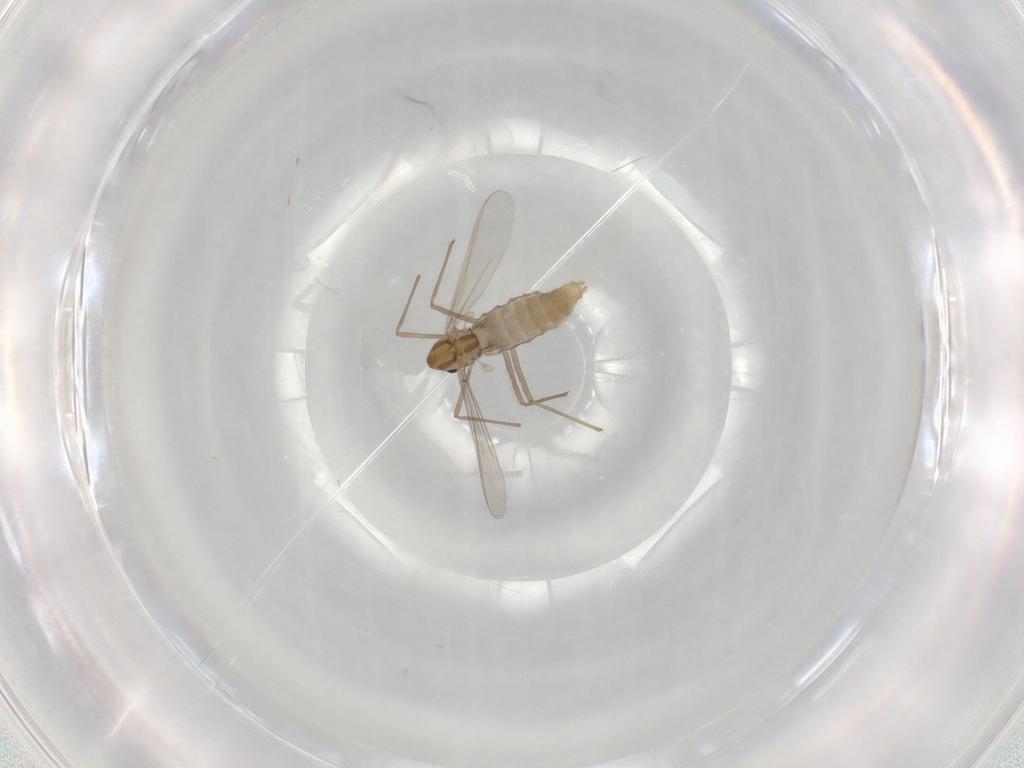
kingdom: Animalia
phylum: Arthropoda
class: Insecta
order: Diptera
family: Chironomidae
